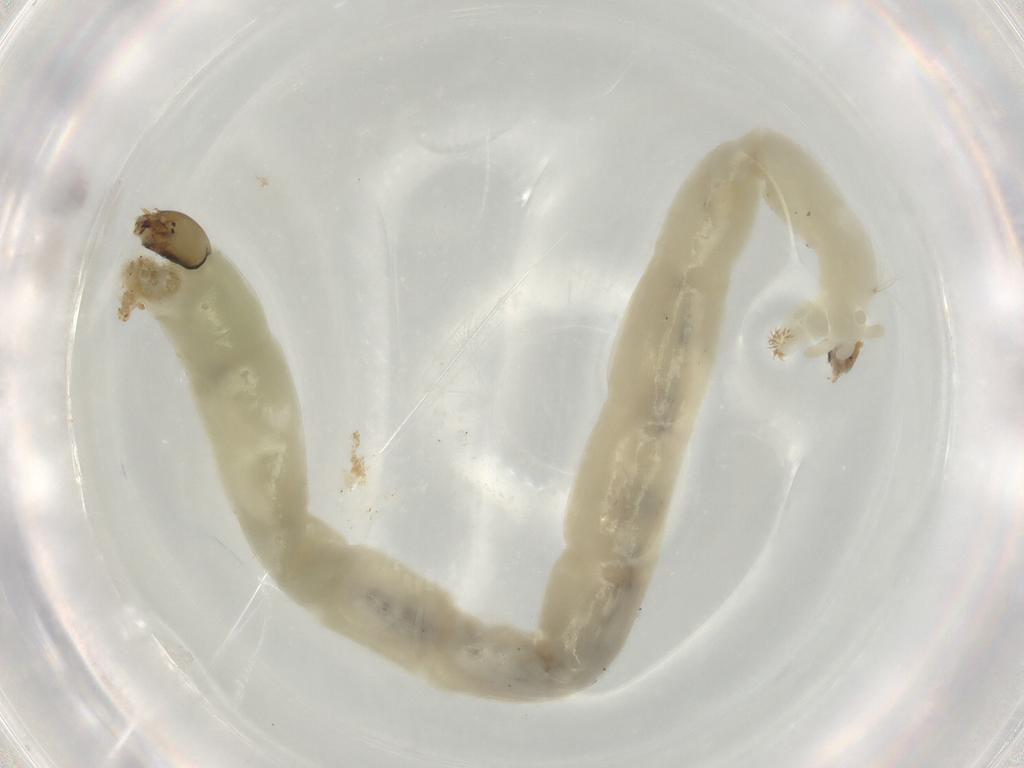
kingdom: Animalia
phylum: Arthropoda
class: Insecta
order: Diptera
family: Chironomidae
